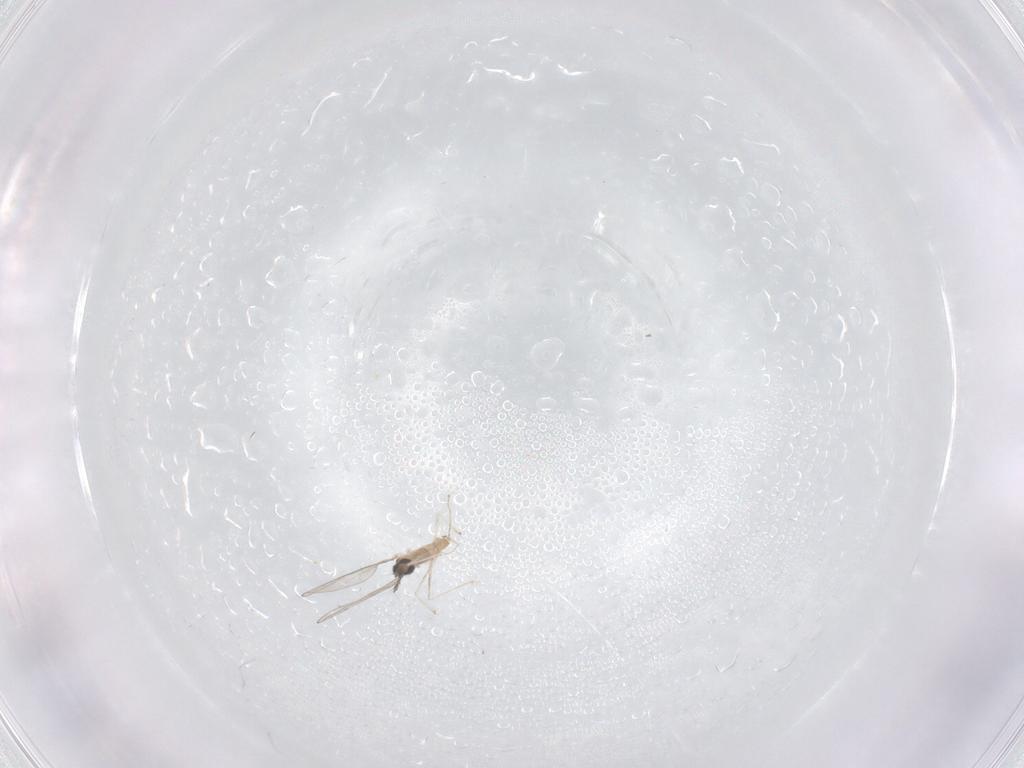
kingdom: Animalia
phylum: Arthropoda
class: Insecta
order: Diptera
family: Cecidomyiidae
